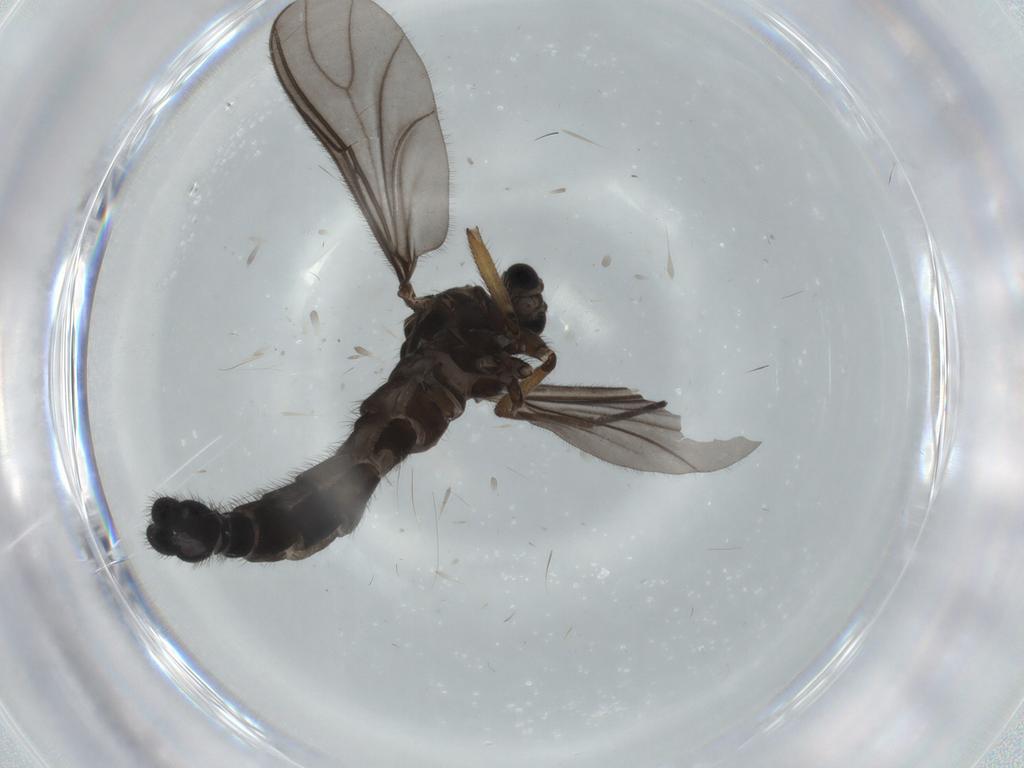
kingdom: Animalia
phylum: Arthropoda
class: Insecta
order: Diptera
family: Sciaridae
